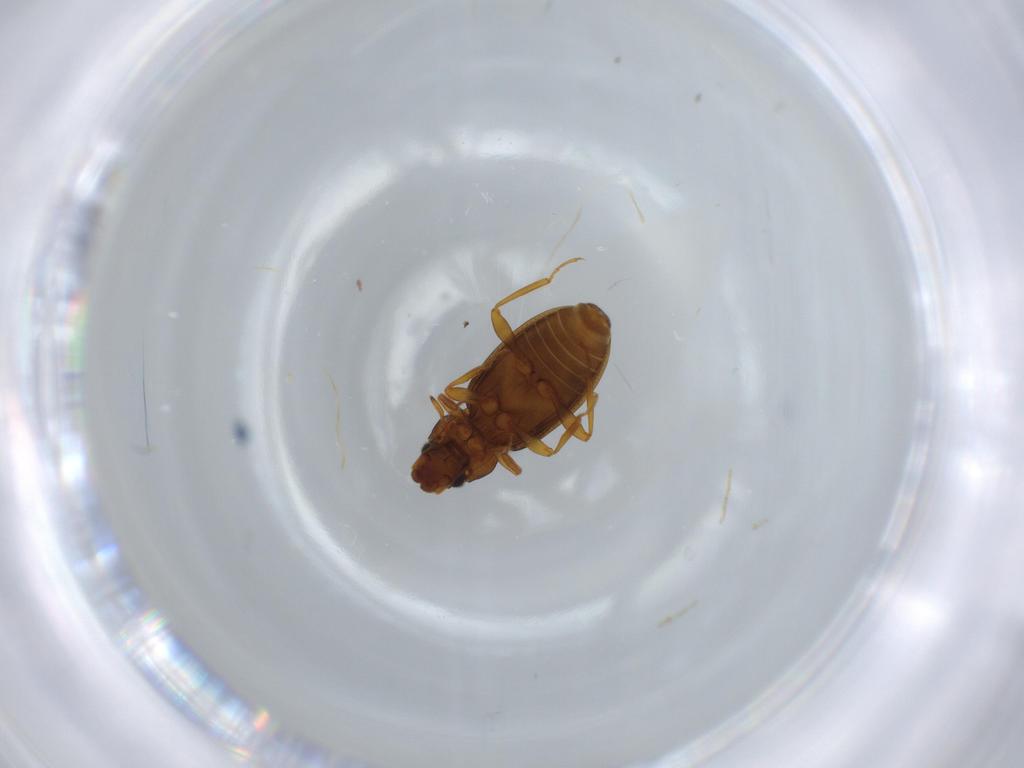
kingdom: Animalia
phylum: Arthropoda
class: Insecta
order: Coleoptera
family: Hydraenidae
